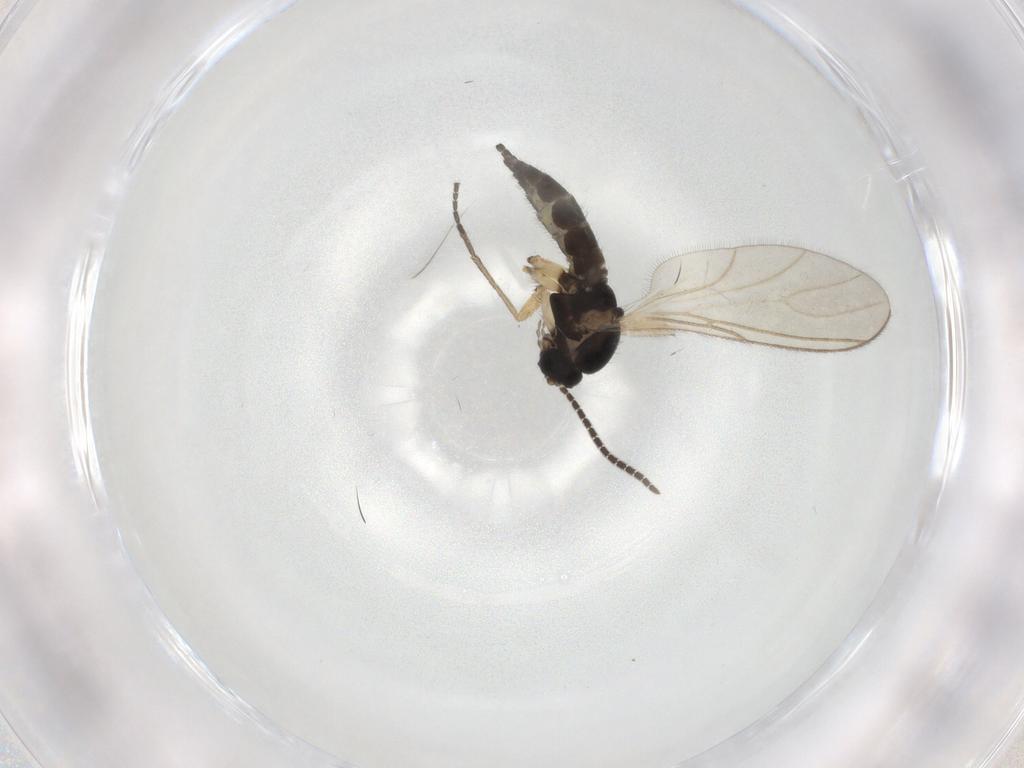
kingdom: Animalia
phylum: Arthropoda
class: Insecta
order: Diptera
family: Sciaridae
